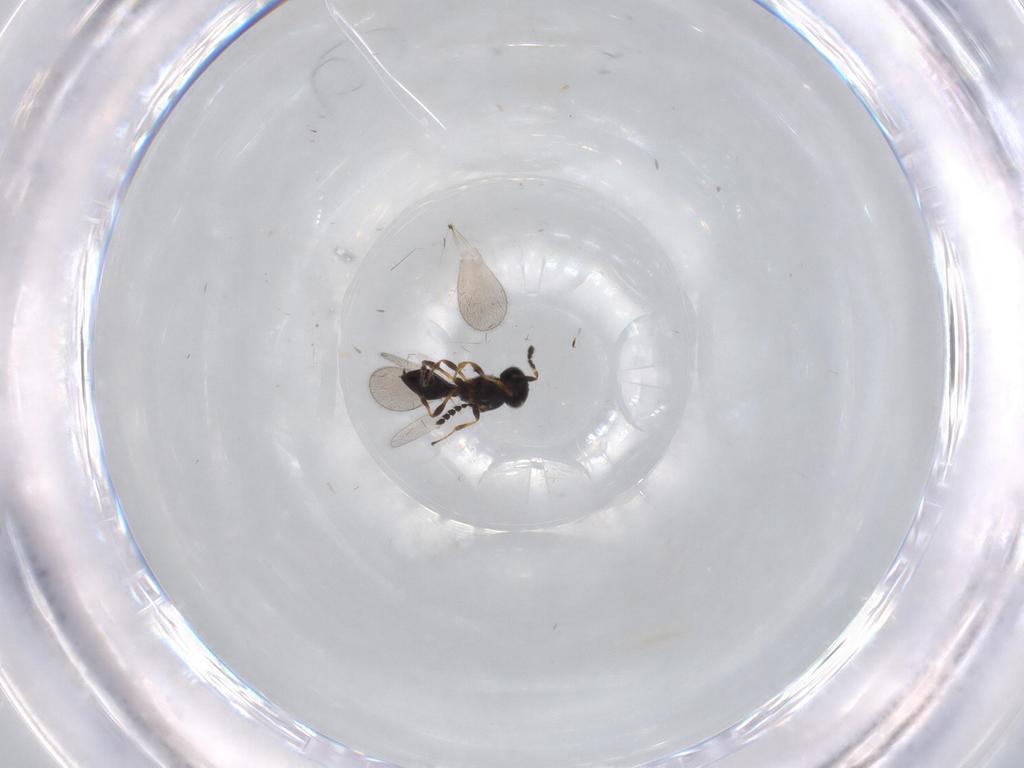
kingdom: Animalia
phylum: Arthropoda
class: Insecta
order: Hymenoptera
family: Platygastridae
